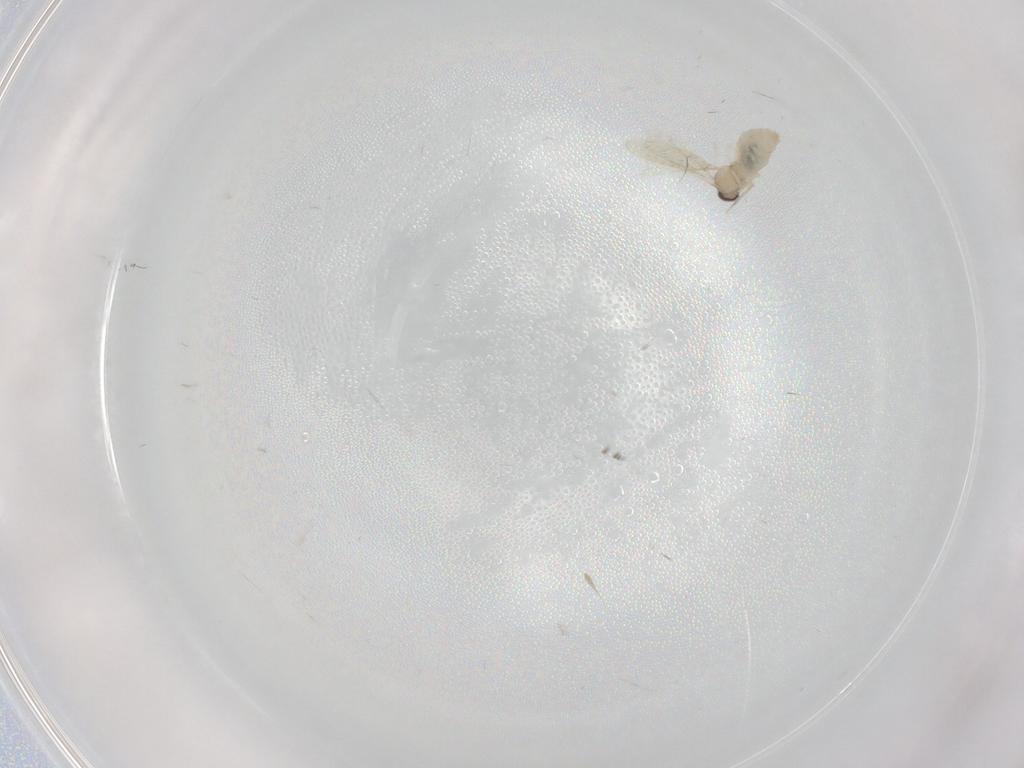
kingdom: Animalia
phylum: Arthropoda
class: Insecta
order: Diptera
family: Cecidomyiidae
